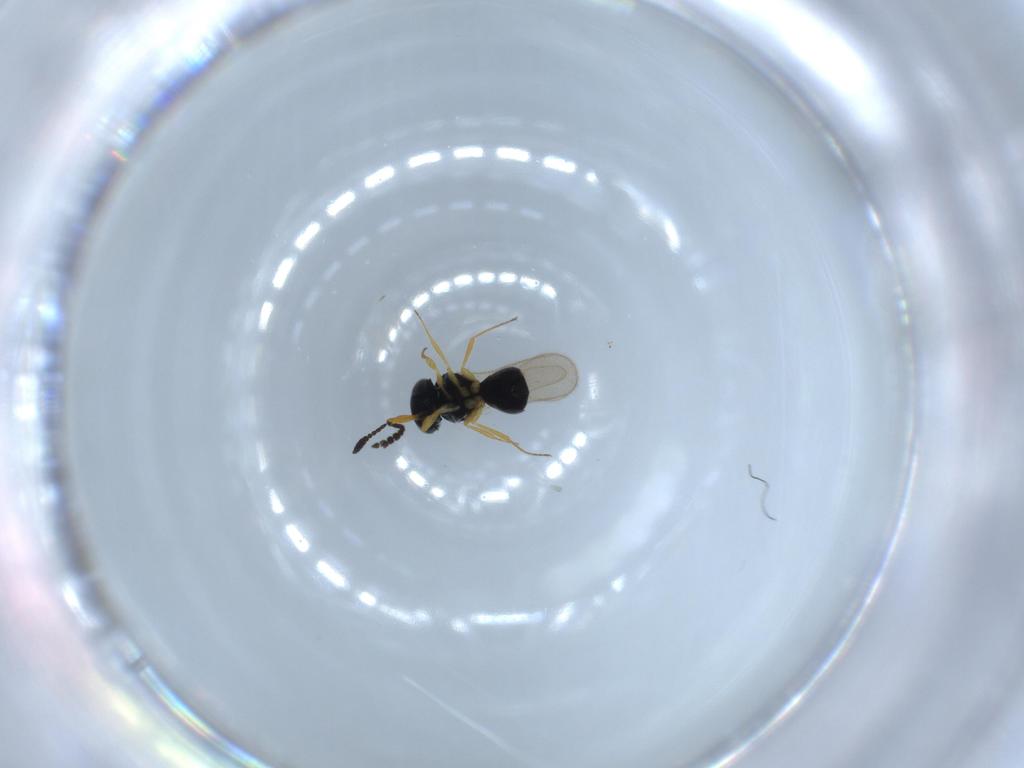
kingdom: Animalia
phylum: Arthropoda
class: Insecta
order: Hymenoptera
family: Scelionidae
